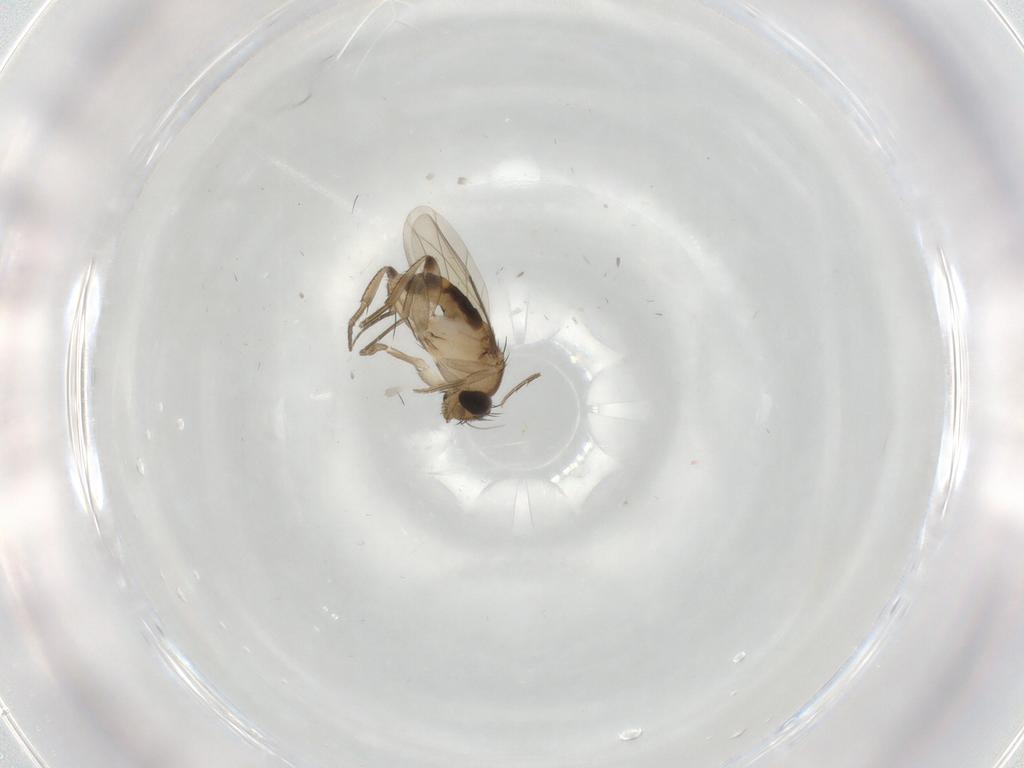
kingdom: Animalia
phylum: Arthropoda
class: Insecta
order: Diptera
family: Phoridae
